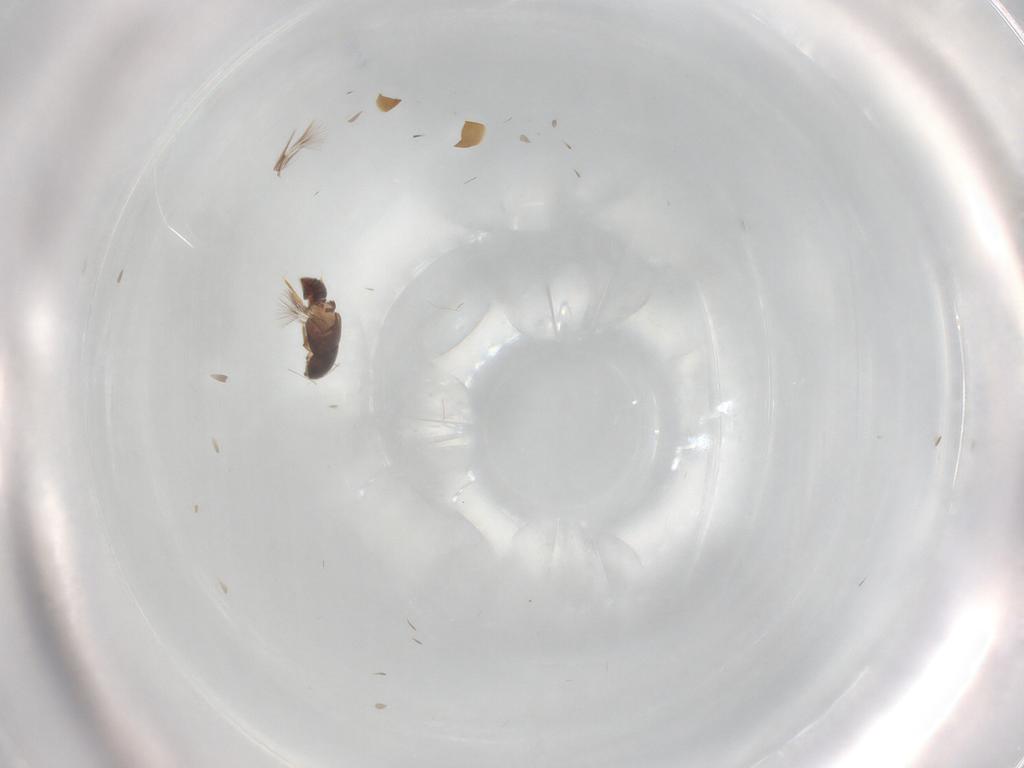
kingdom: Animalia
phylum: Arthropoda
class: Insecta
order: Coleoptera
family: Ptiliidae
